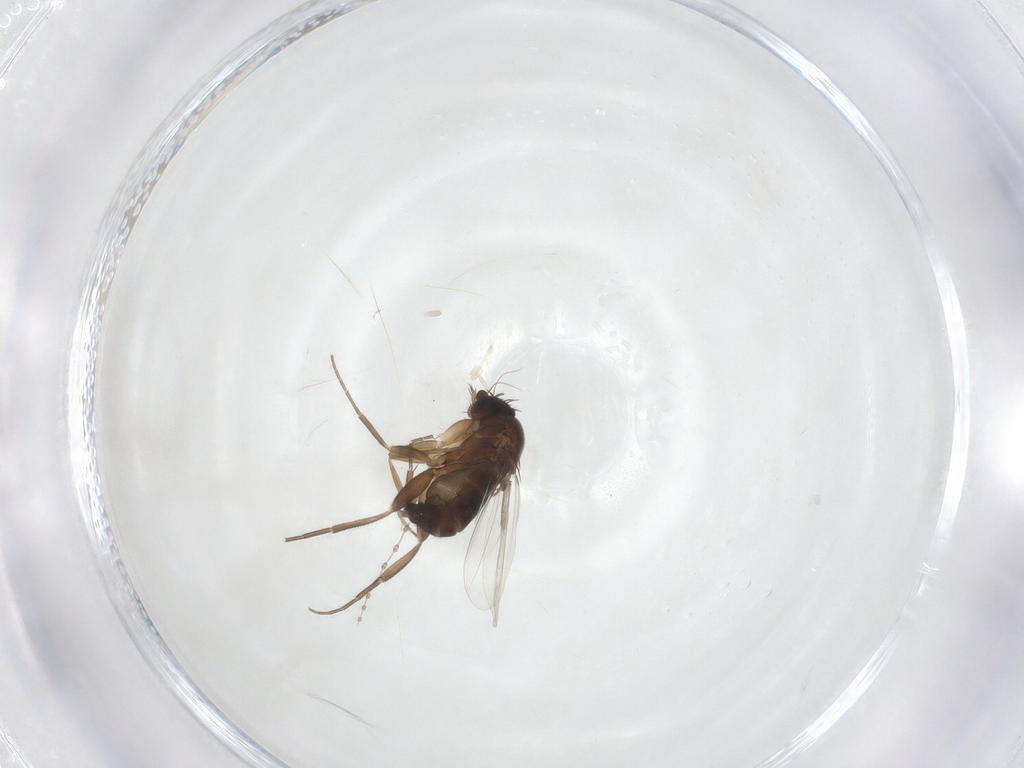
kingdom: Animalia
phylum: Arthropoda
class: Insecta
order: Diptera
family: Phoridae
